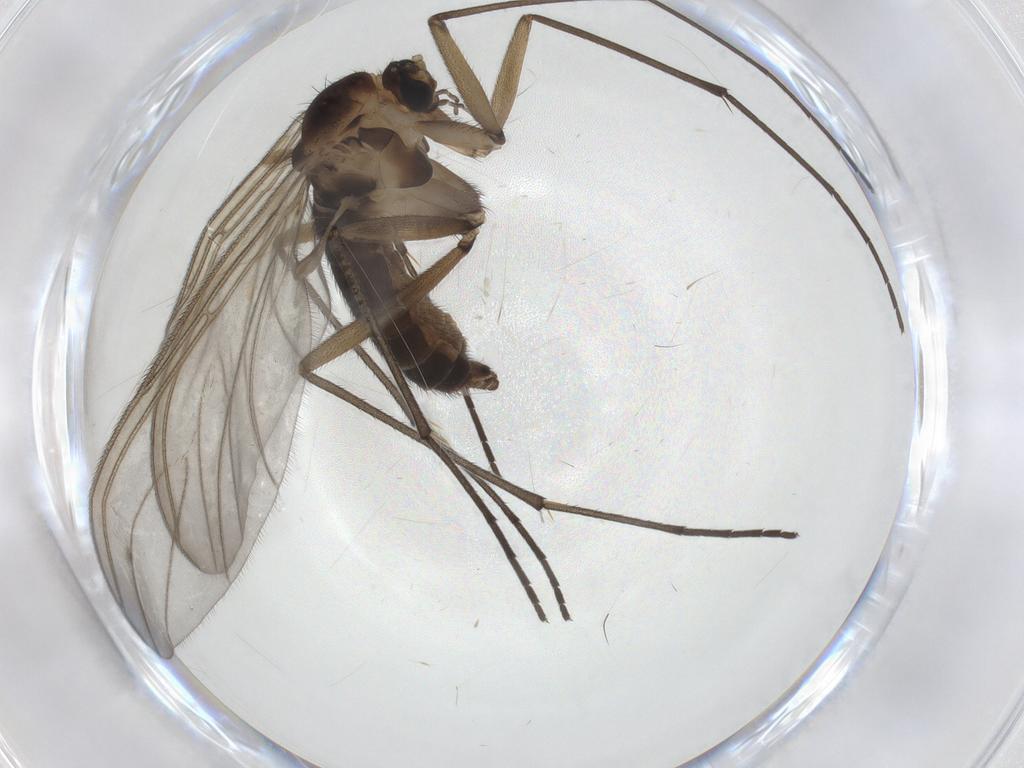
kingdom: Animalia
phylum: Arthropoda
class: Insecta
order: Diptera
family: Sciaridae
